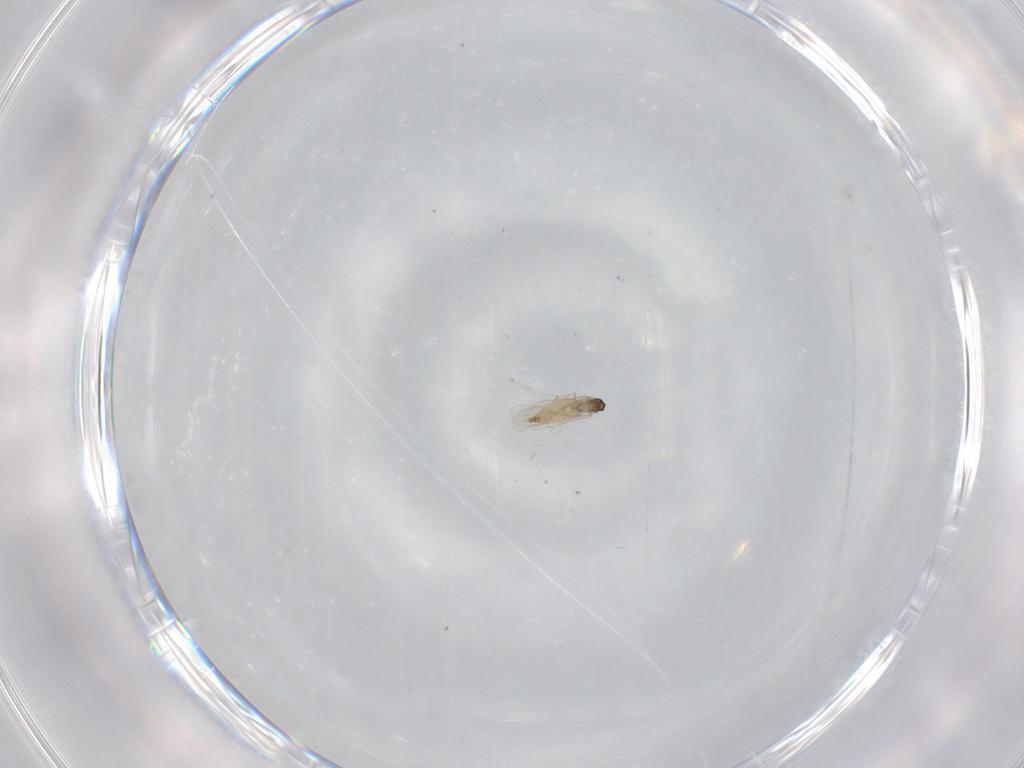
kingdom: Animalia
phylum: Arthropoda
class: Insecta
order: Diptera
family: Tabanidae
